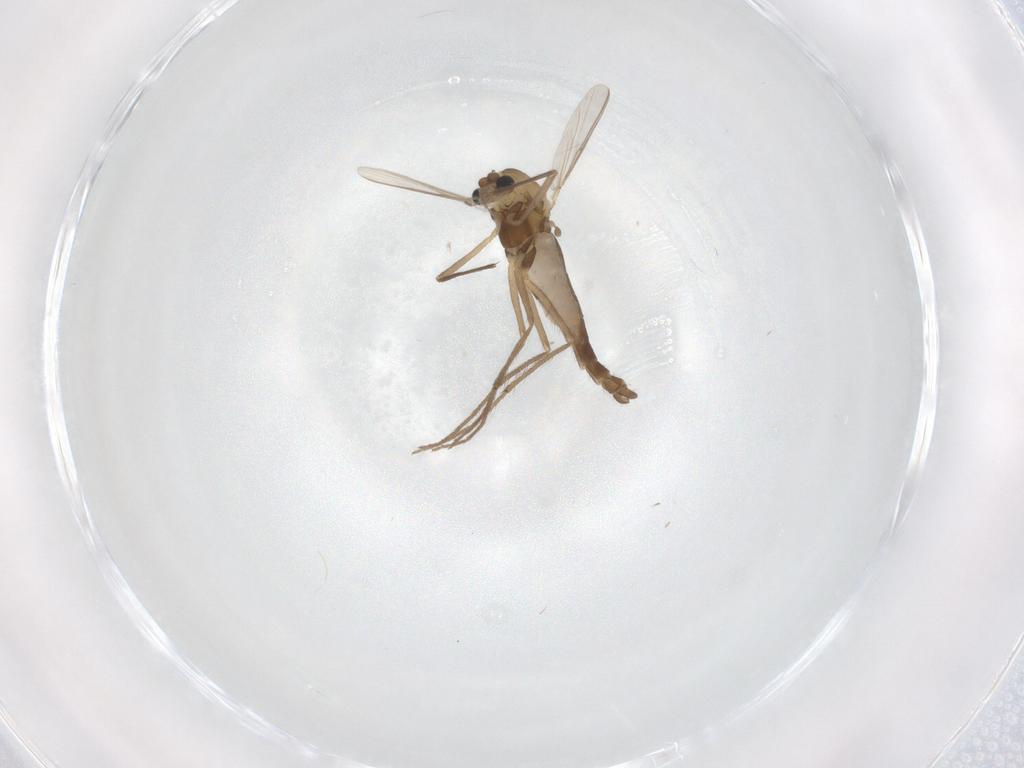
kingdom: Animalia
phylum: Arthropoda
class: Insecta
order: Diptera
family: Chironomidae
